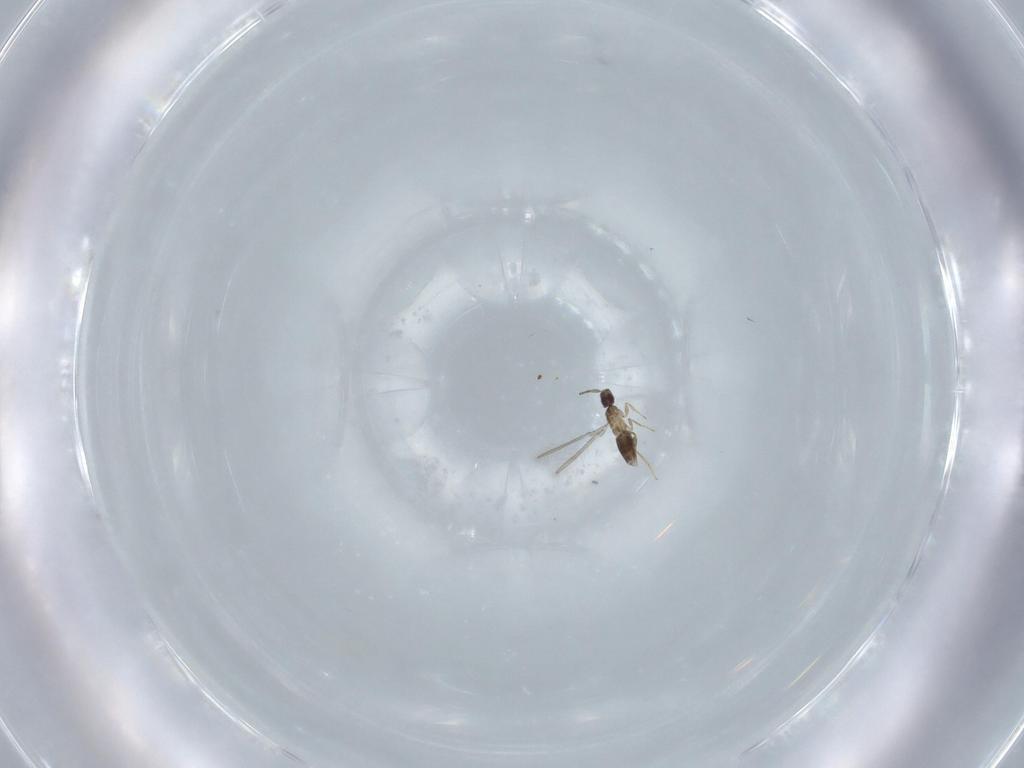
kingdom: Animalia
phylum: Arthropoda
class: Insecta
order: Hymenoptera
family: Mymaridae
